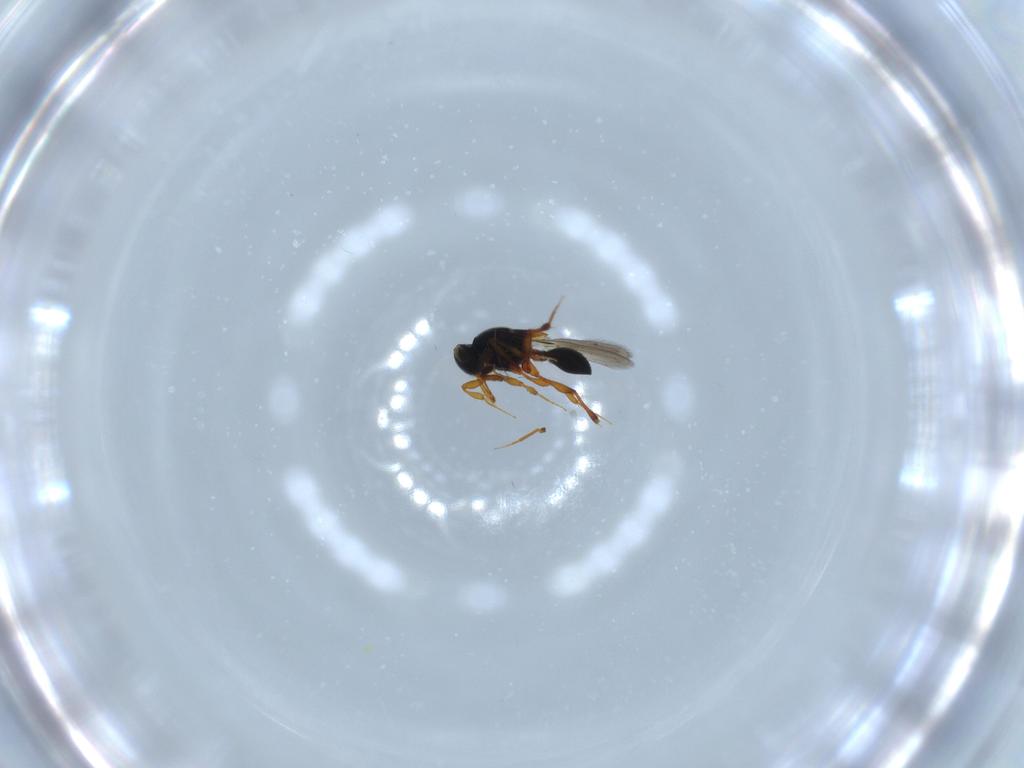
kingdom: Animalia
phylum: Arthropoda
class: Insecta
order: Hymenoptera
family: Platygastridae
